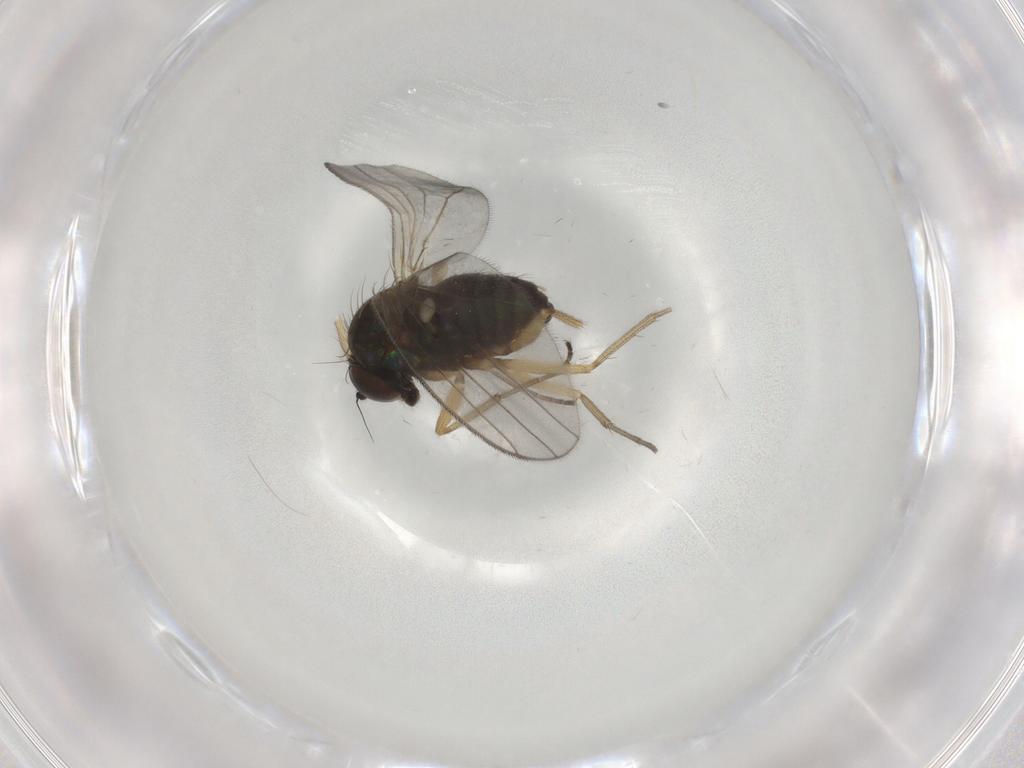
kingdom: Animalia
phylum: Arthropoda
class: Insecta
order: Diptera
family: Dolichopodidae
